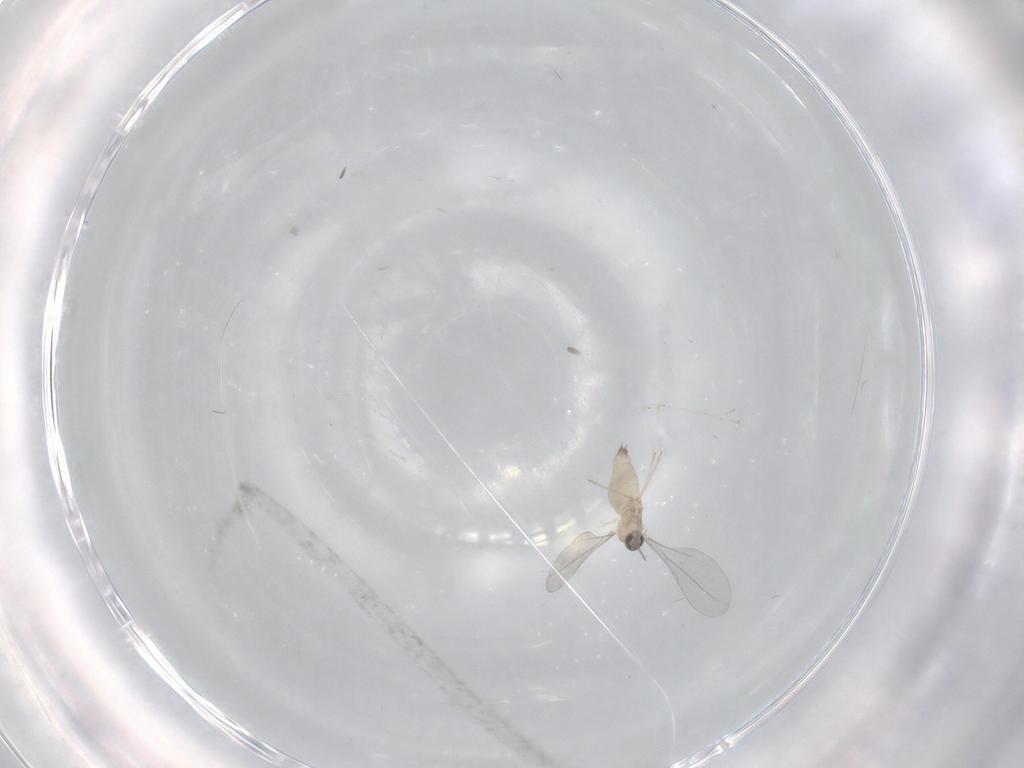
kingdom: Animalia
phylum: Arthropoda
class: Insecta
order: Diptera
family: Cecidomyiidae
